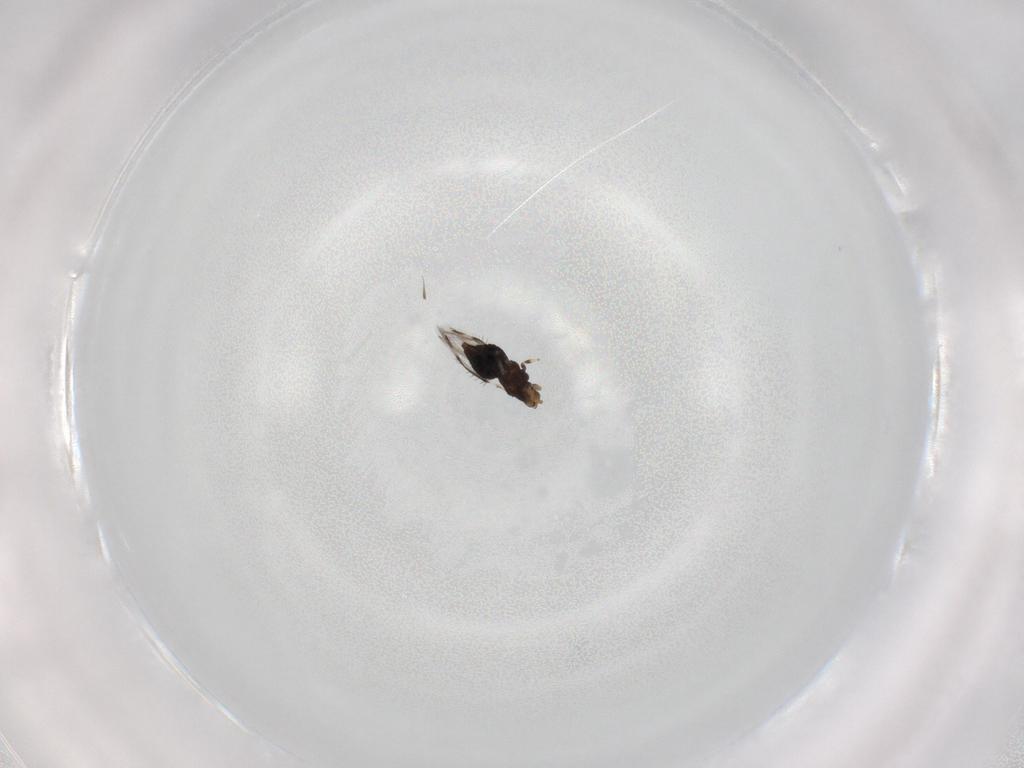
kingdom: Animalia
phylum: Arthropoda
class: Insecta
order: Thysanoptera
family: Thripidae
